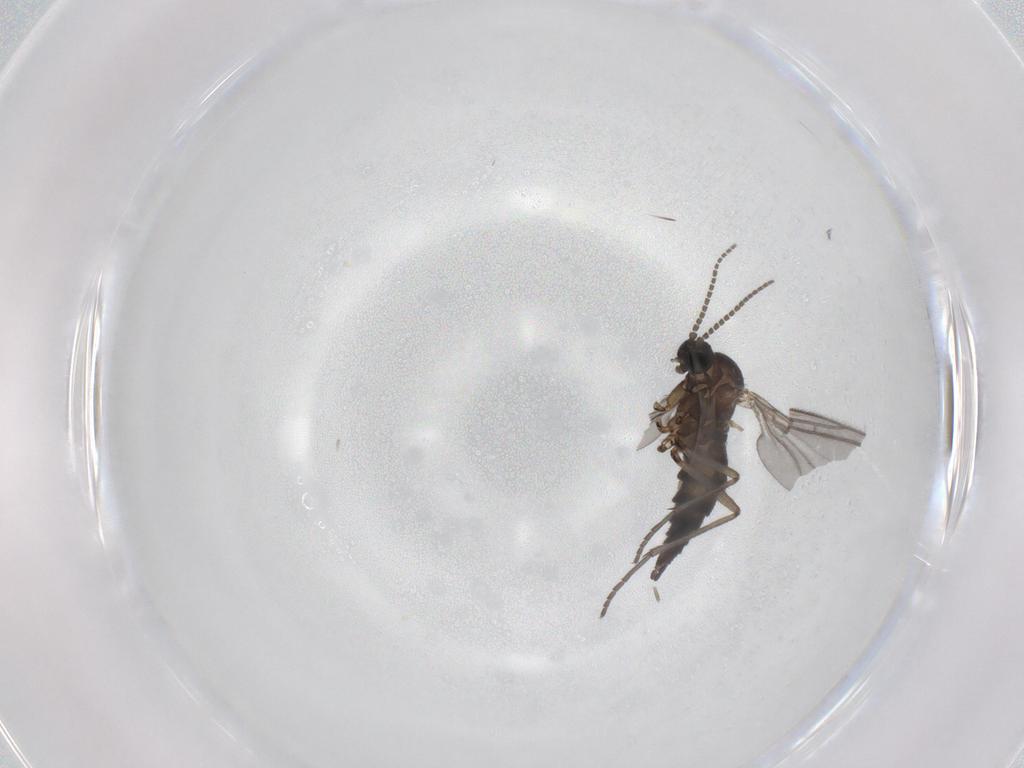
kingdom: Animalia
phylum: Arthropoda
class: Insecta
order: Diptera
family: Sciaridae
